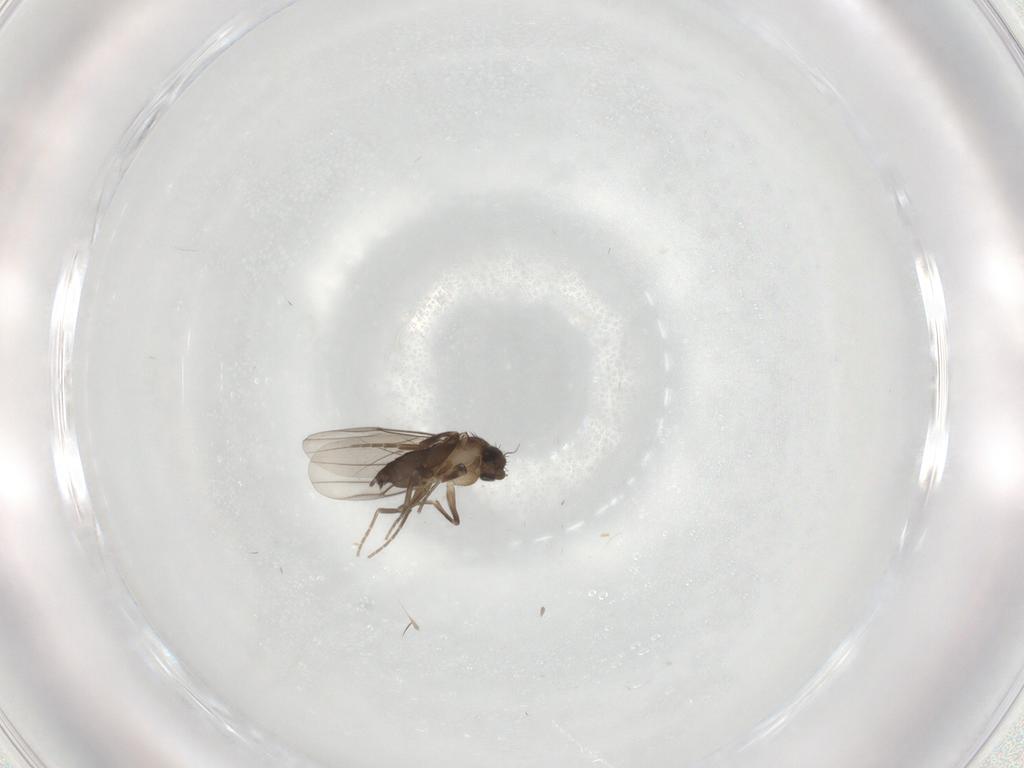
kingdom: Animalia
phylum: Arthropoda
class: Insecta
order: Diptera
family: Phoridae
